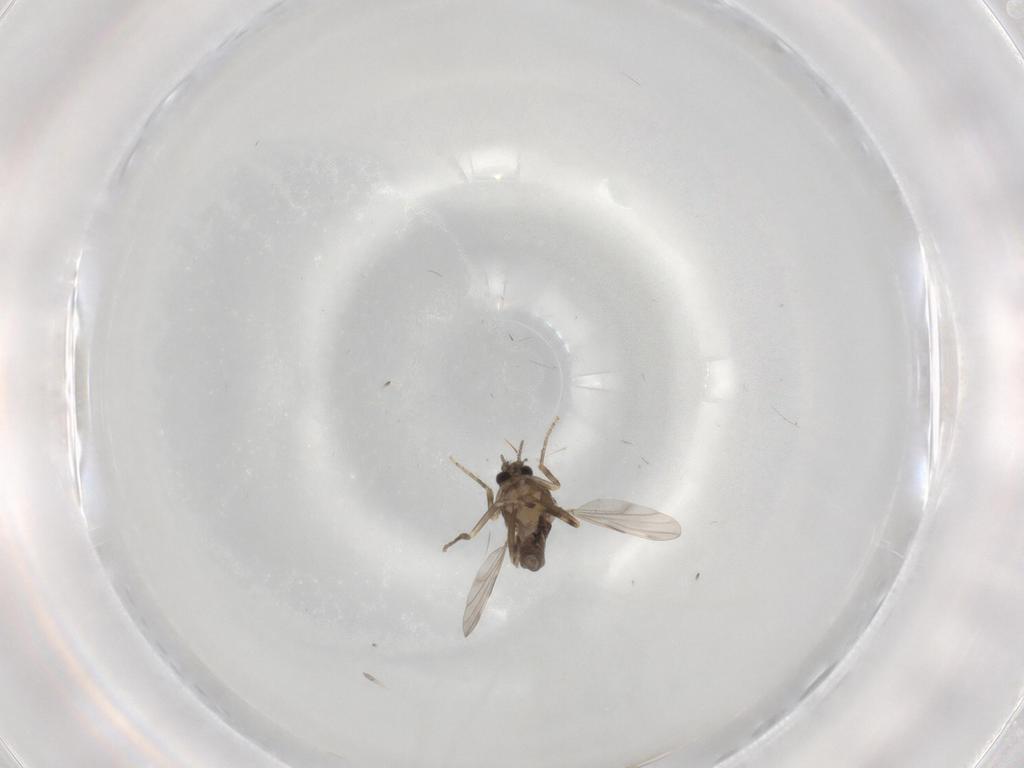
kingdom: Animalia
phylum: Arthropoda
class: Insecta
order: Diptera
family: Ceratopogonidae
